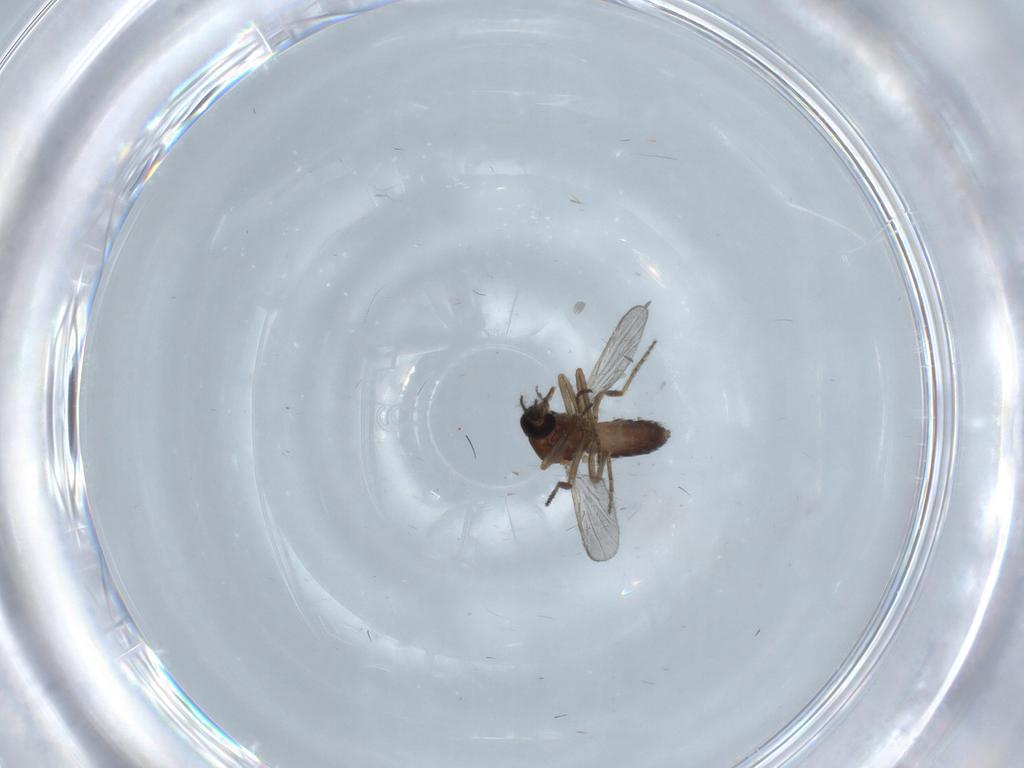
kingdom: Animalia
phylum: Arthropoda
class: Insecta
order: Diptera
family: Ceratopogonidae
